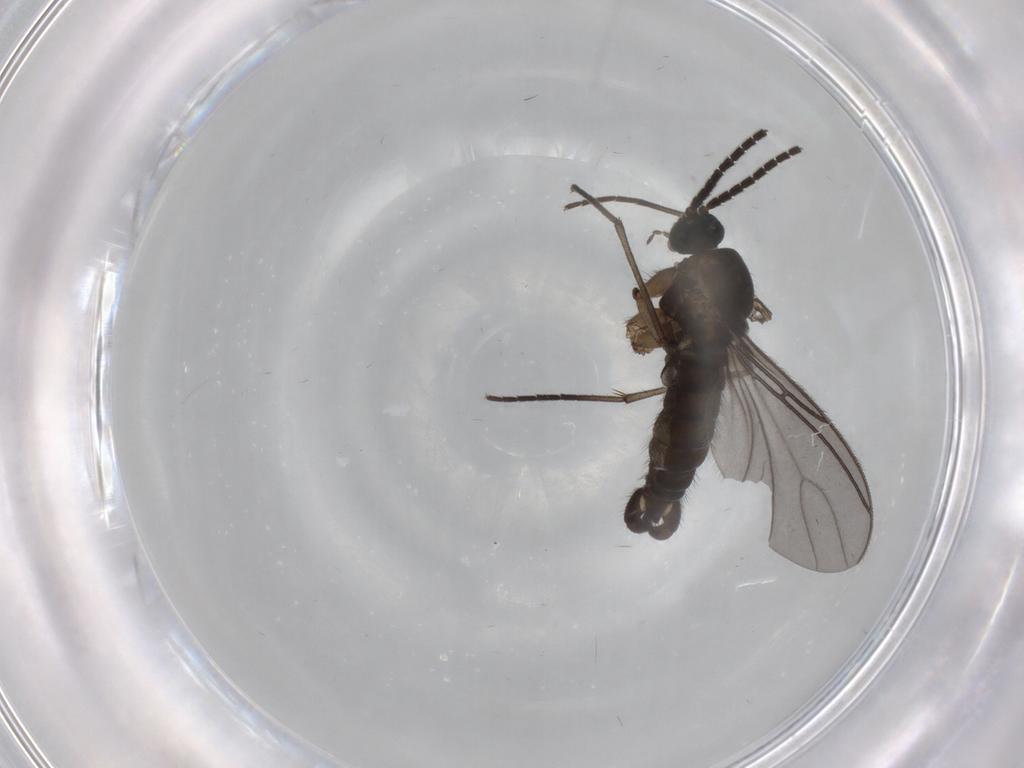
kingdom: Animalia
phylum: Arthropoda
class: Insecta
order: Diptera
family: Sciaridae
